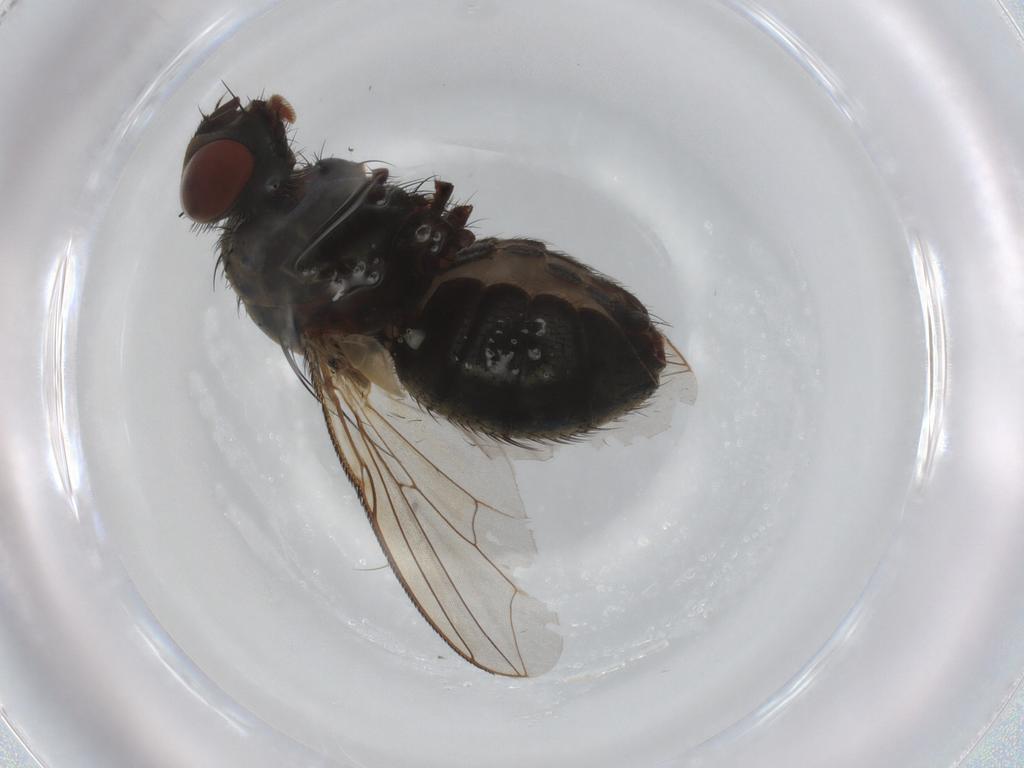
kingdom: Animalia
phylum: Arthropoda
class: Insecta
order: Diptera
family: Sarcophagidae
